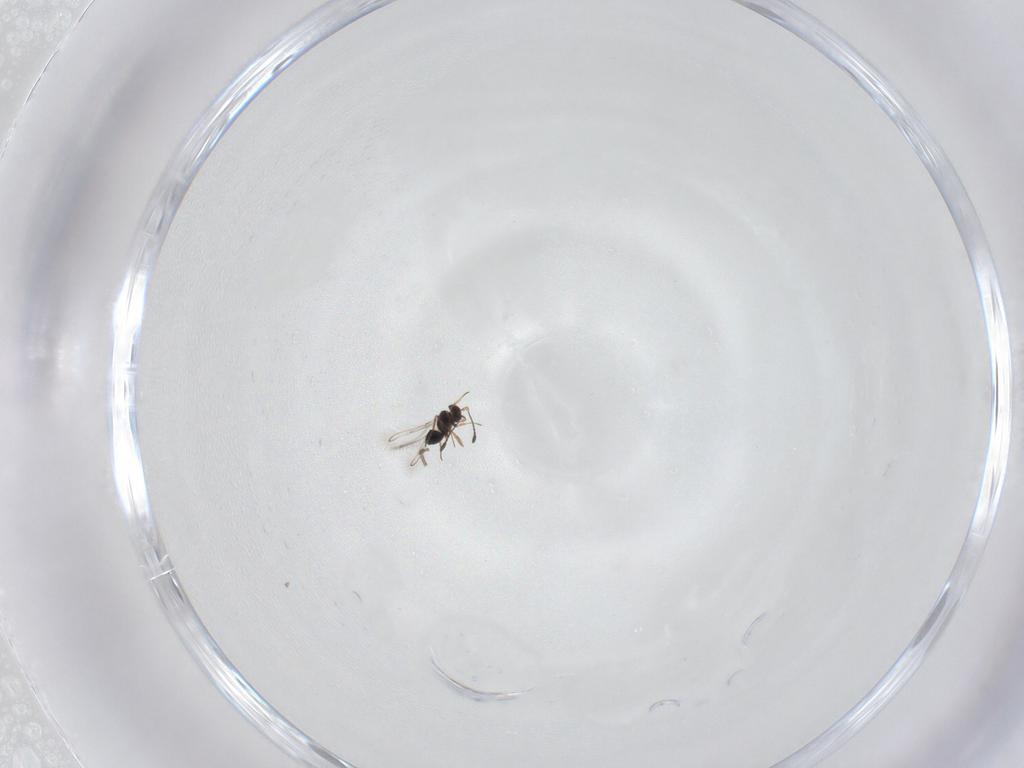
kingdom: Animalia
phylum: Arthropoda
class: Insecta
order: Diptera
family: Chironomidae
